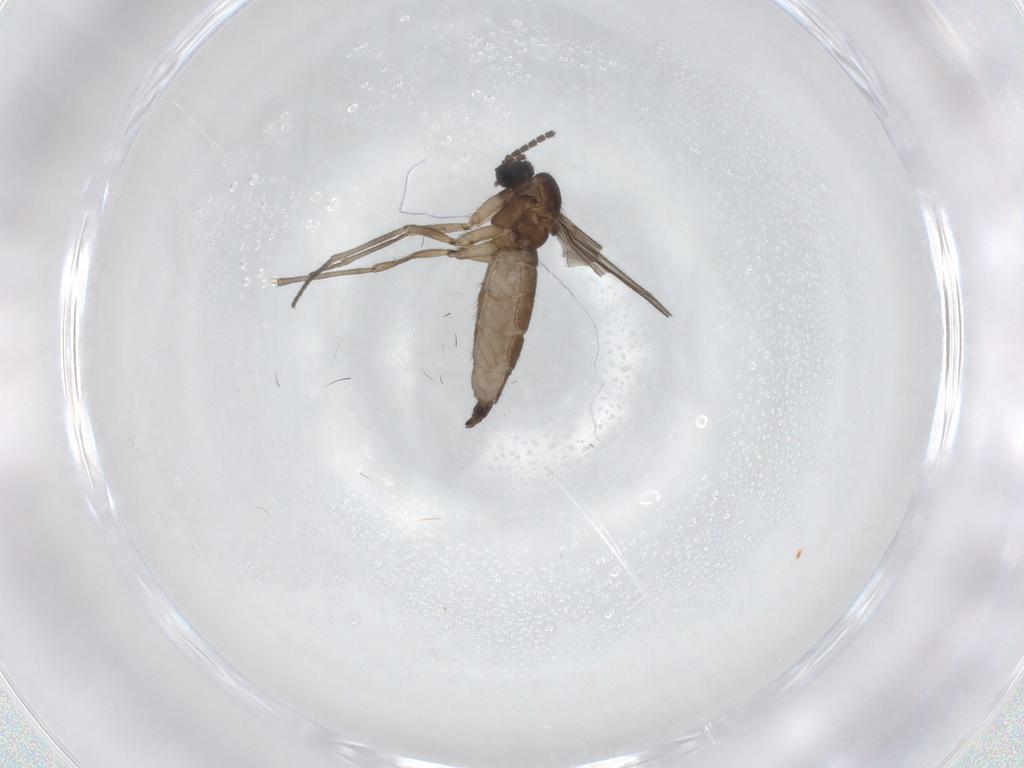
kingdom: Animalia
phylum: Arthropoda
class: Insecta
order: Diptera
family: Sciaridae
